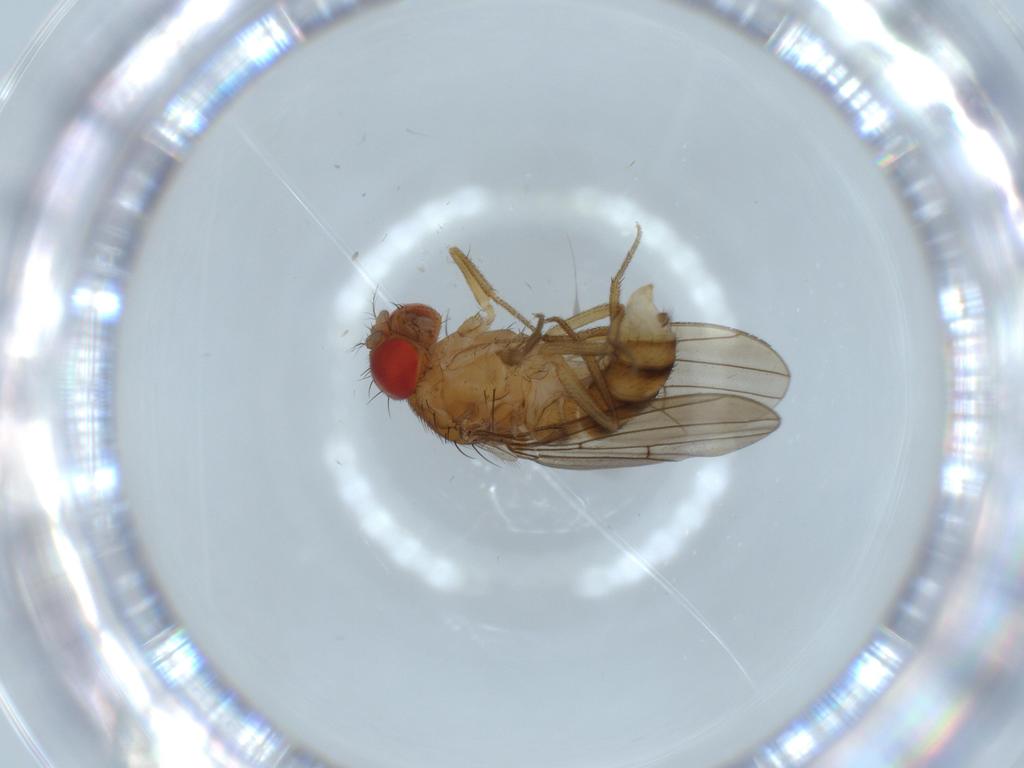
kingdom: Animalia
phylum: Arthropoda
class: Insecta
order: Diptera
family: Drosophilidae
